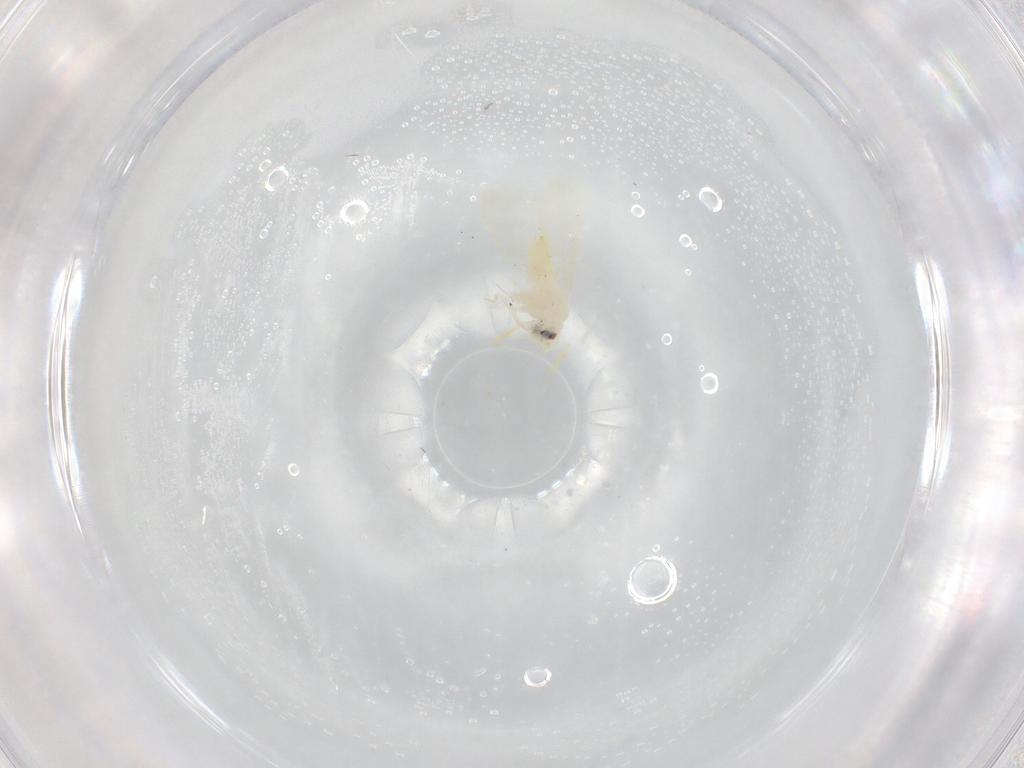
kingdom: Animalia
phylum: Arthropoda
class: Insecta
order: Hemiptera
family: Aleyrodidae
